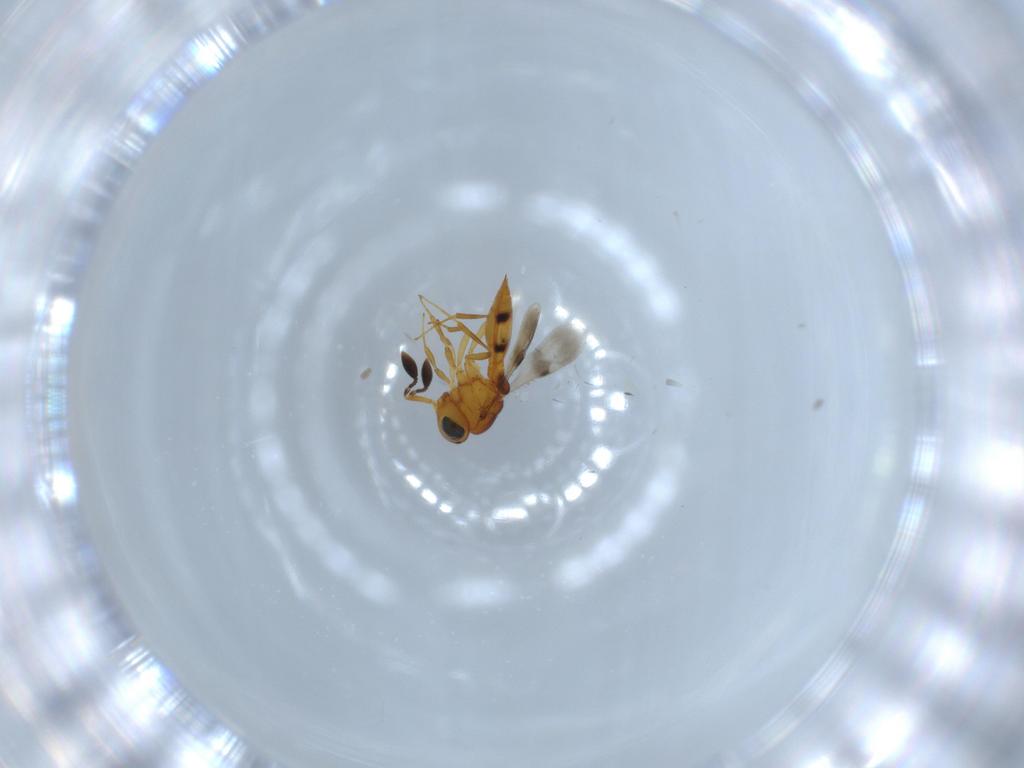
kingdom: Animalia
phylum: Arthropoda
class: Insecta
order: Hymenoptera
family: Scelionidae
